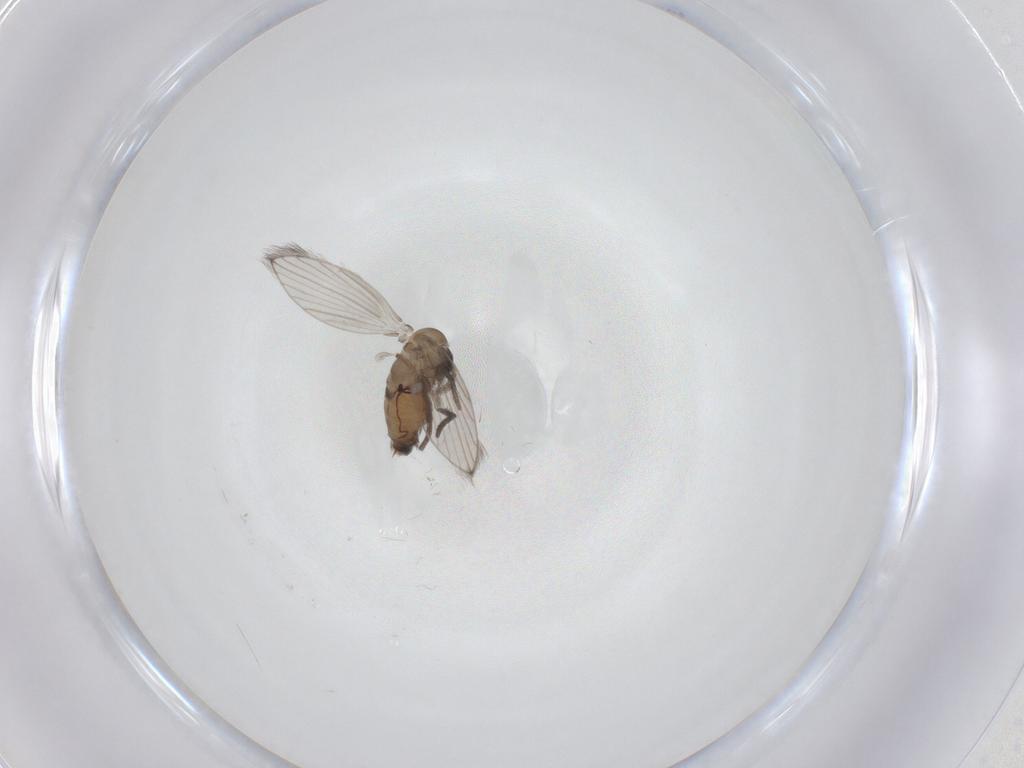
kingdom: Animalia
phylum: Arthropoda
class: Insecta
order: Diptera
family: Psychodidae
